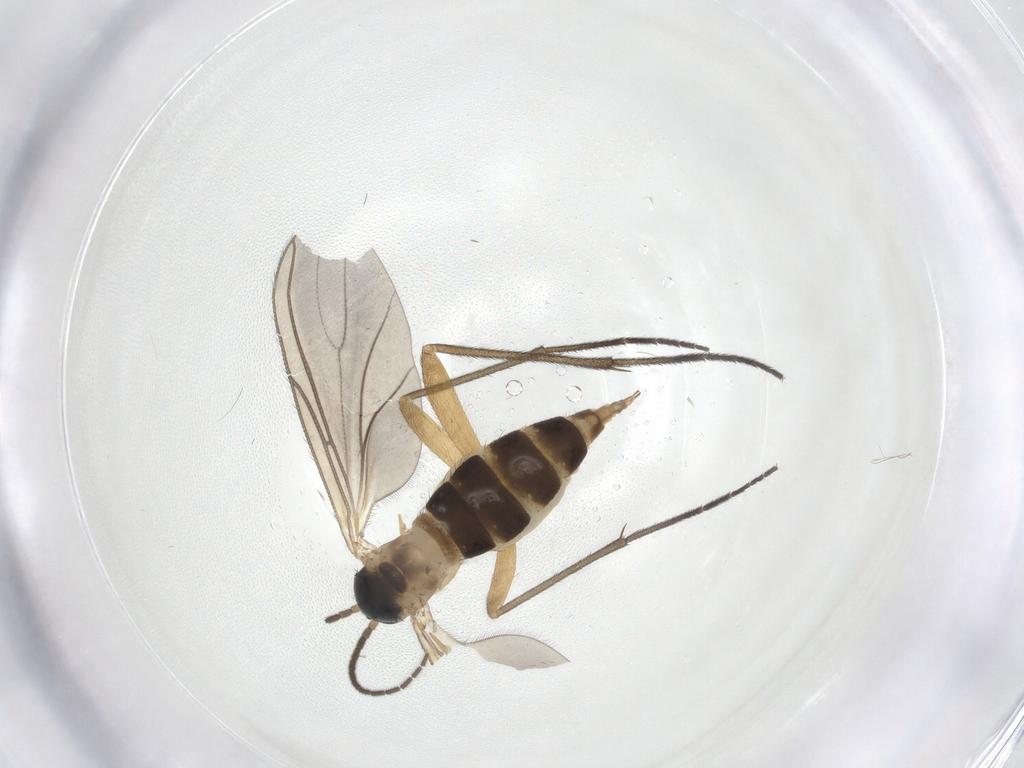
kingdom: Animalia
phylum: Arthropoda
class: Insecta
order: Diptera
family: Sciaridae
